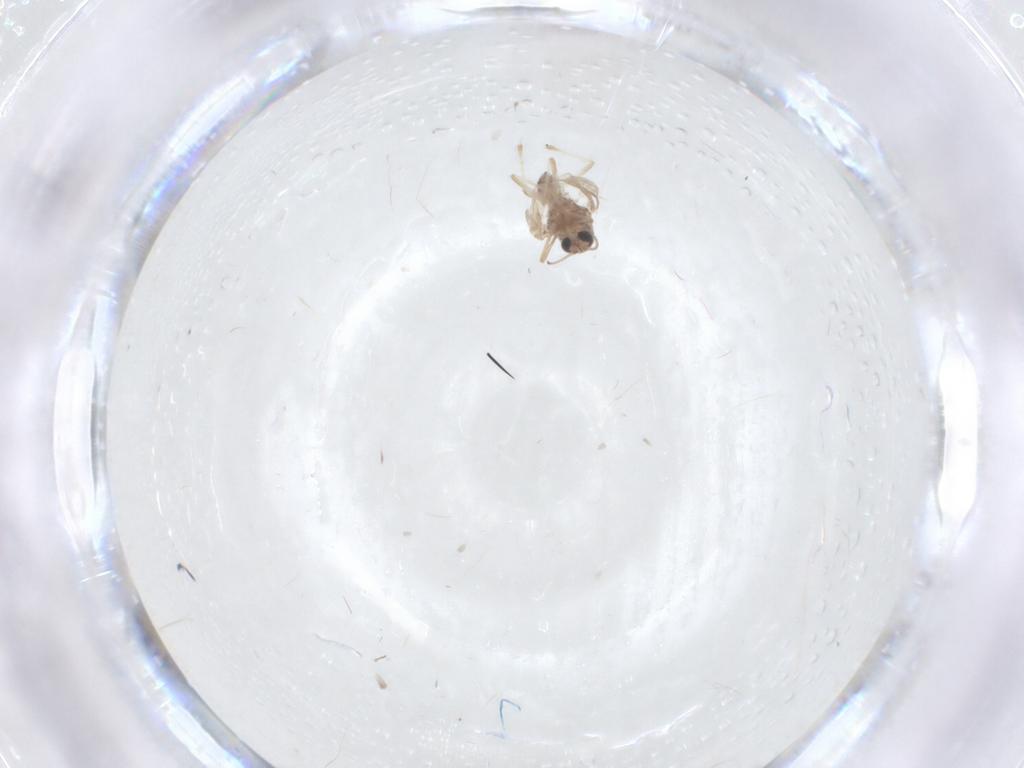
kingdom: Animalia
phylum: Arthropoda
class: Insecta
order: Diptera
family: Chironomidae
